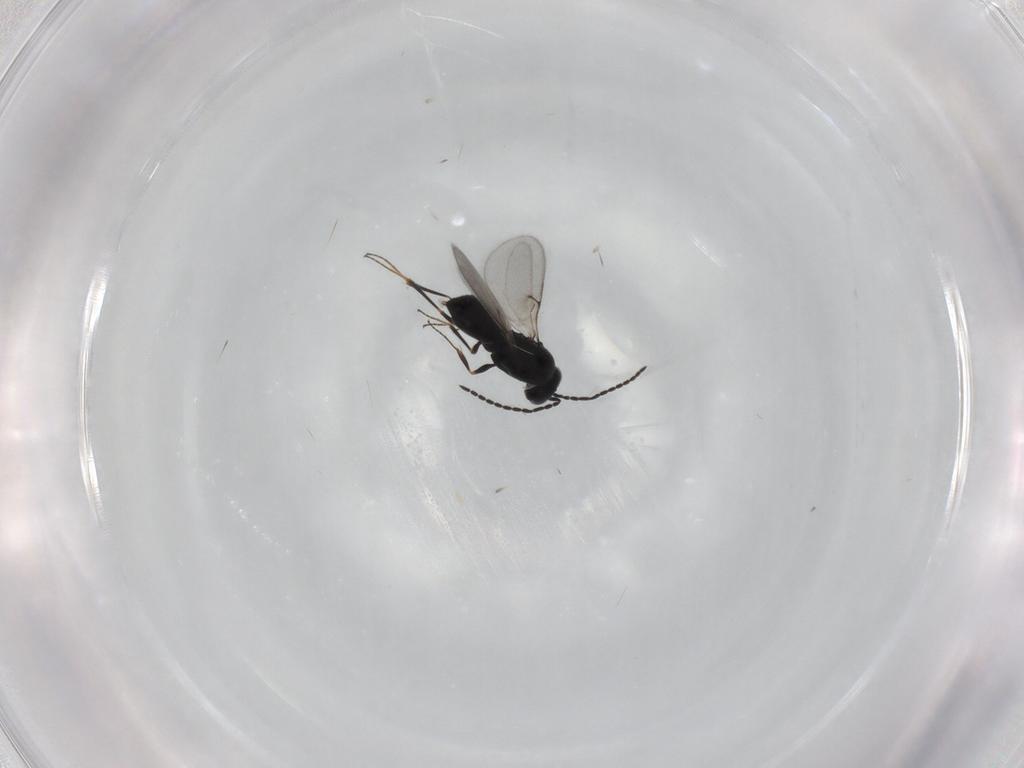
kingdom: Animalia
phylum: Arthropoda
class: Insecta
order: Hymenoptera
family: Scelionidae
